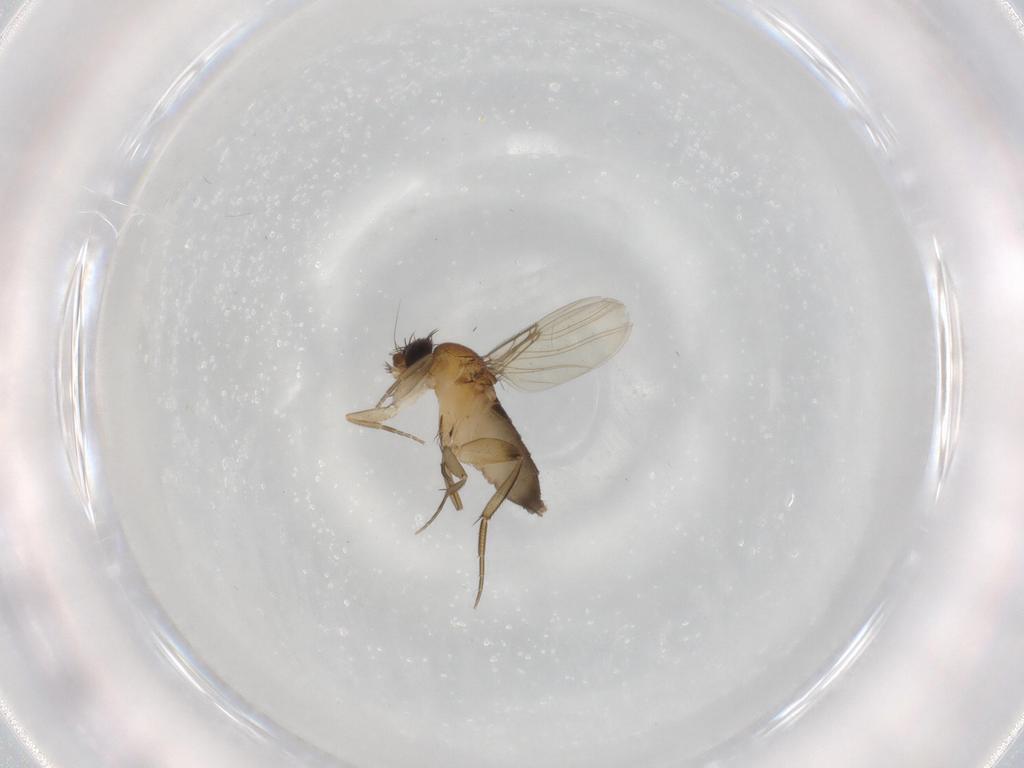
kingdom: Animalia
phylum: Arthropoda
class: Insecta
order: Diptera
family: Phoridae
